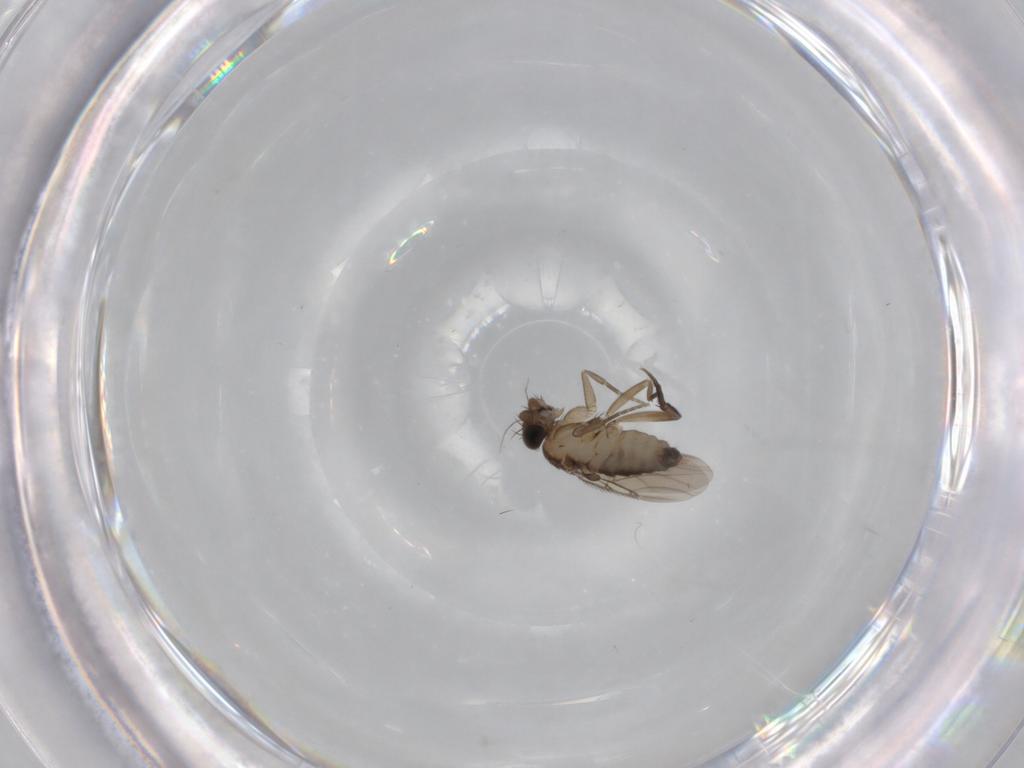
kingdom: Animalia
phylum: Arthropoda
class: Insecta
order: Diptera
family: Phoridae
